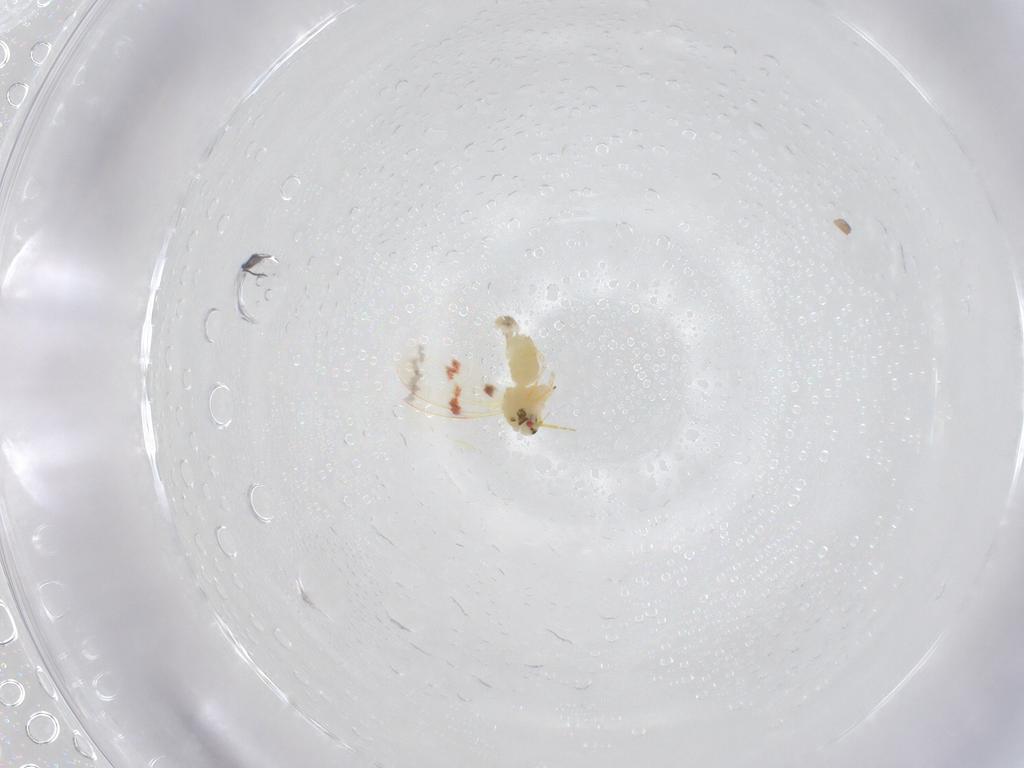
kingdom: Animalia
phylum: Arthropoda
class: Insecta
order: Hemiptera
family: Aleyrodidae
